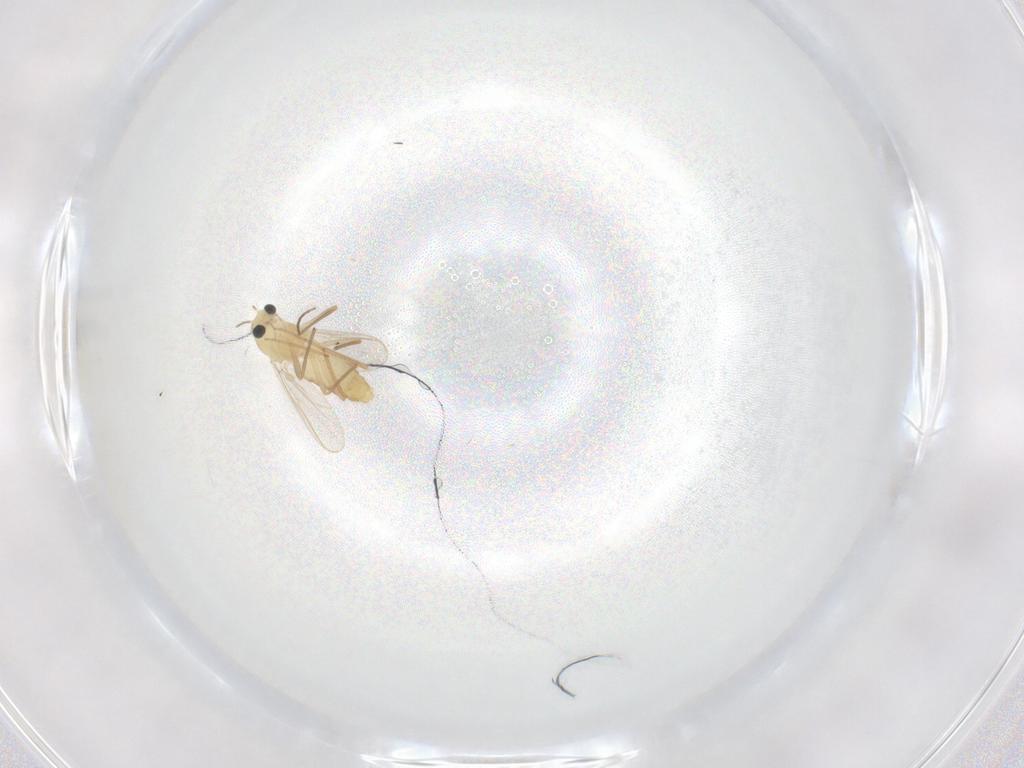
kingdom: Animalia
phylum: Arthropoda
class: Insecta
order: Diptera
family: Chironomidae
